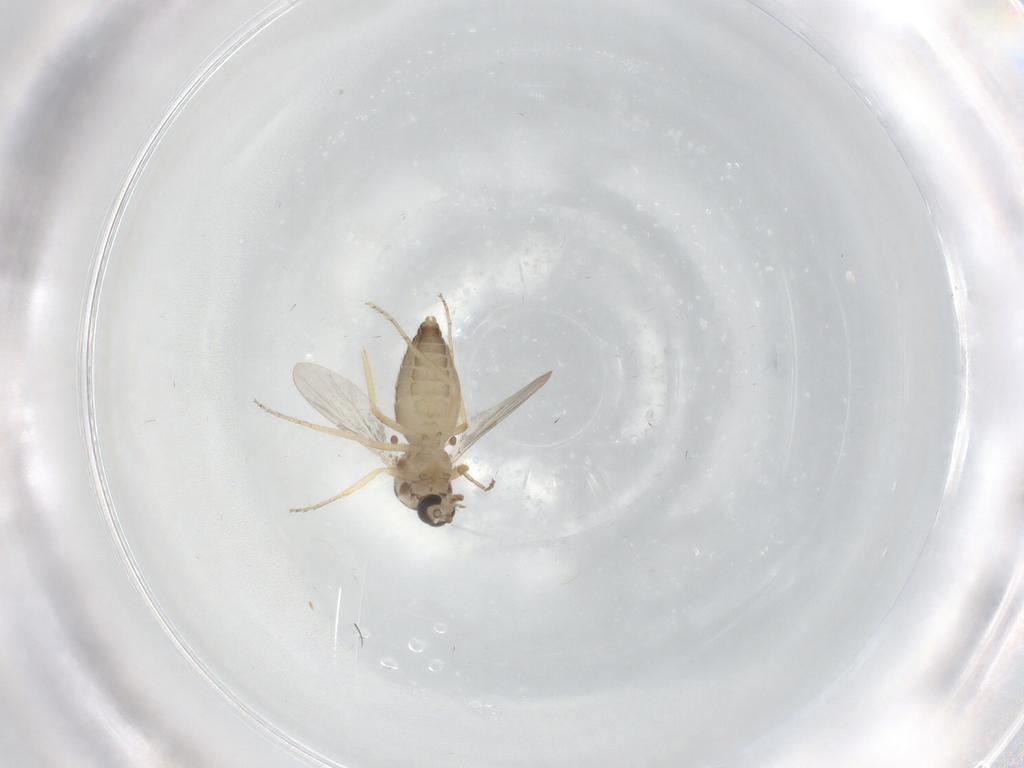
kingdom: Animalia
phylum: Arthropoda
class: Insecta
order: Diptera
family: Ceratopogonidae
